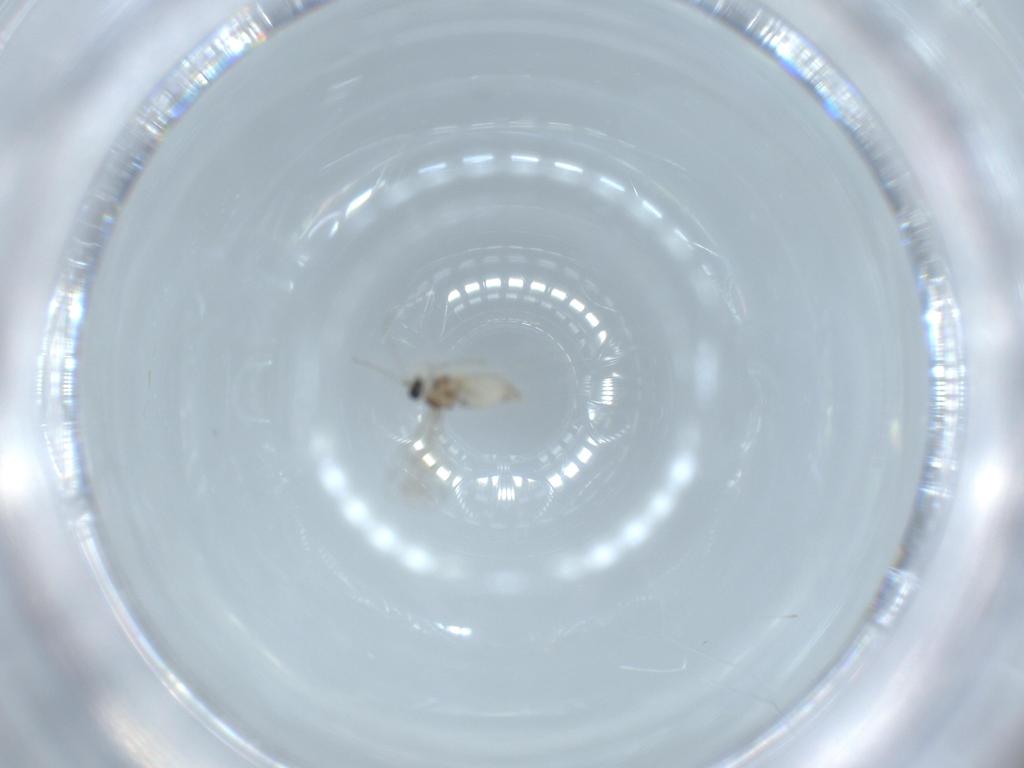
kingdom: Animalia
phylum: Arthropoda
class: Insecta
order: Diptera
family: Cecidomyiidae
